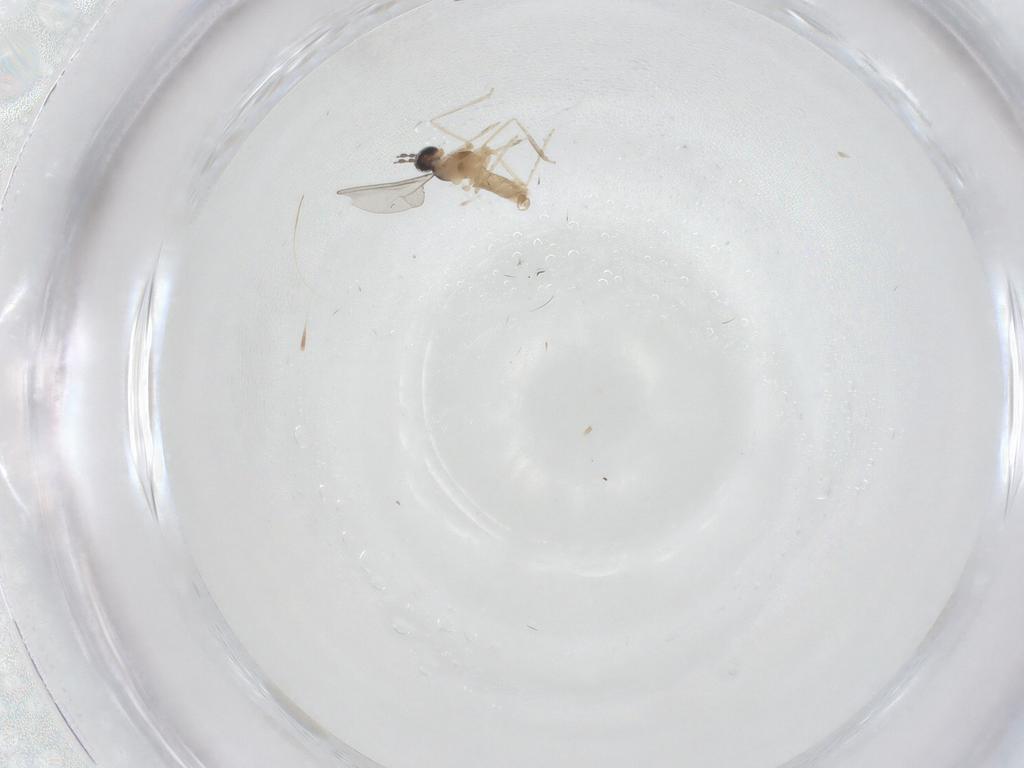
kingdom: Animalia
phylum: Arthropoda
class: Insecta
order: Diptera
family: Cecidomyiidae
